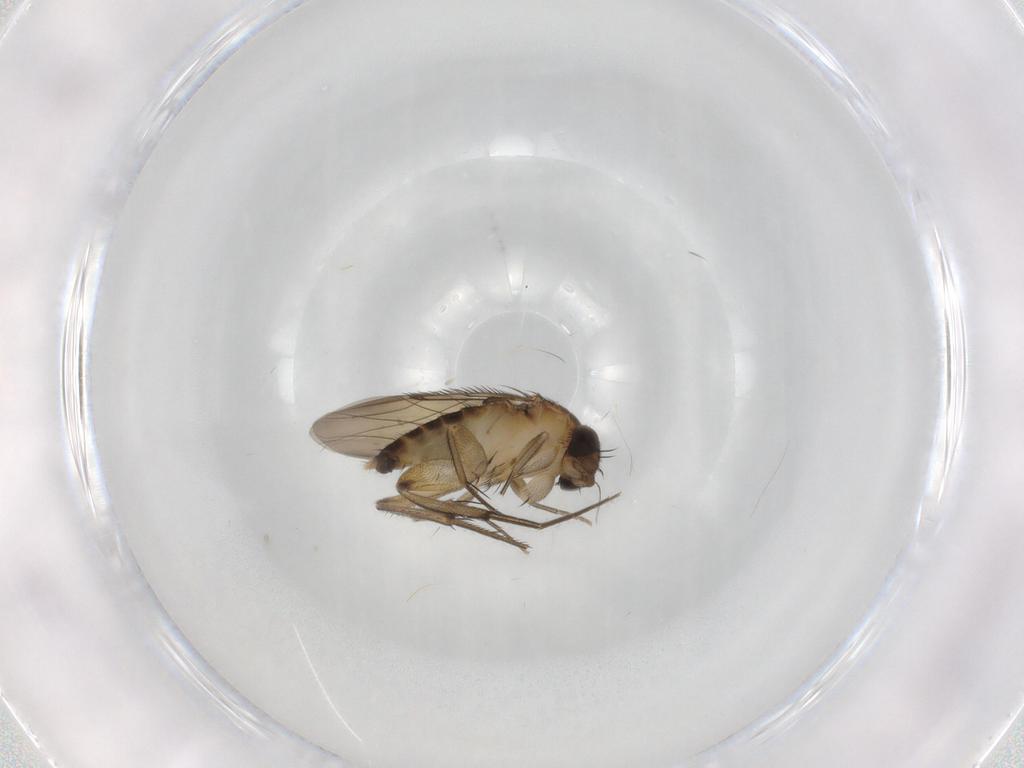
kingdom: Animalia
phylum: Arthropoda
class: Insecta
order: Diptera
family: Phoridae
